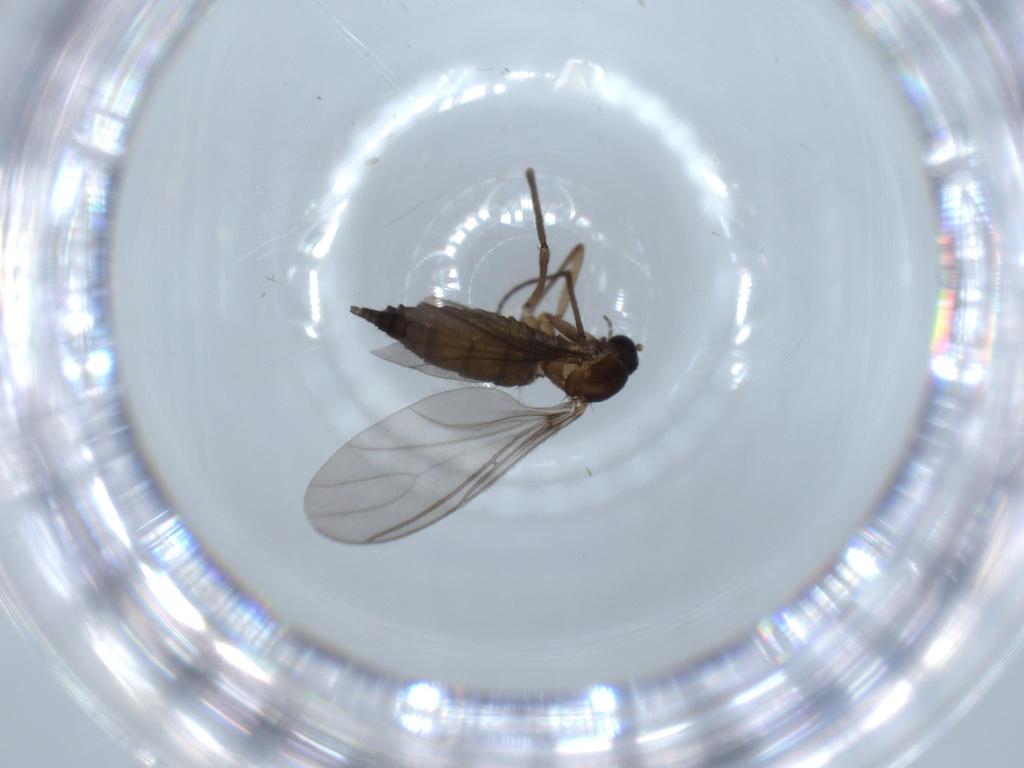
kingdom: Animalia
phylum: Arthropoda
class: Insecta
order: Diptera
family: Sciaridae
